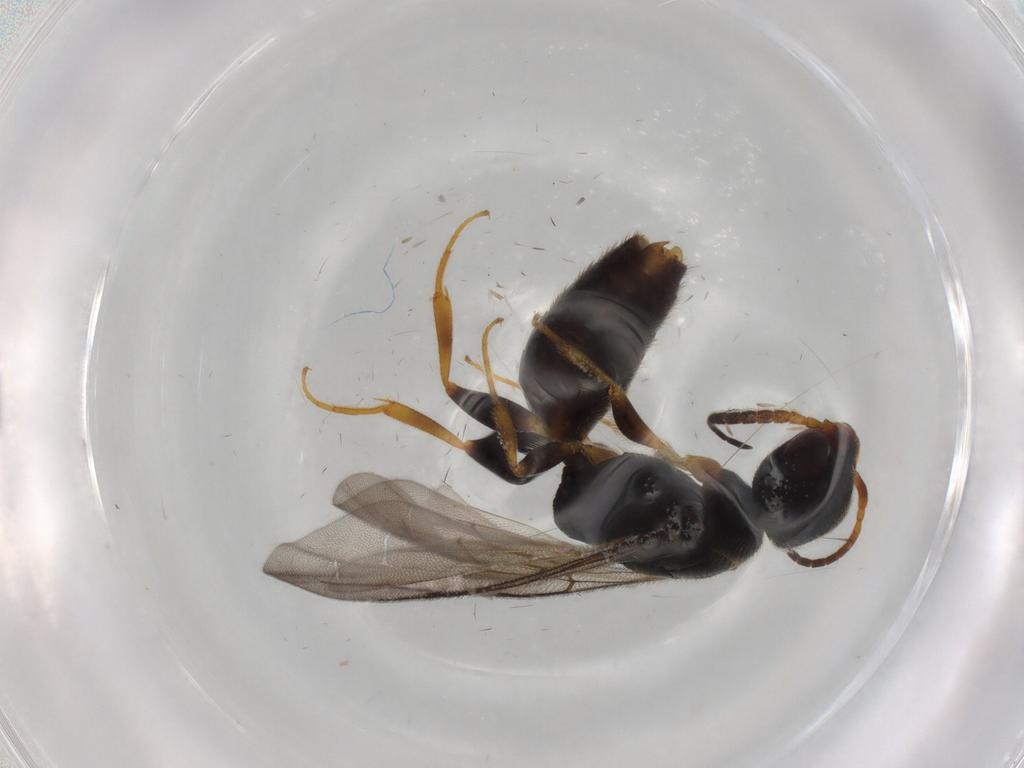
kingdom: Animalia
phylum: Arthropoda
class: Insecta
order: Hymenoptera
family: Bethylidae
